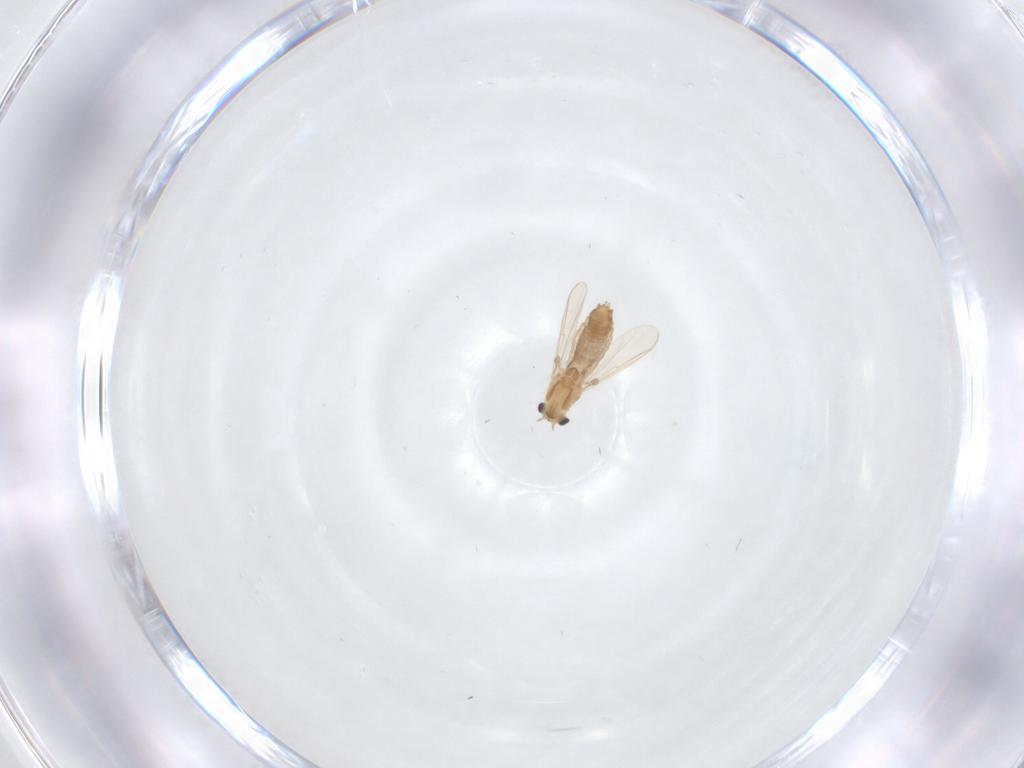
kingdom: Animalia
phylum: Arthropoda
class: Insecta
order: Diptera
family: Chironomidae
